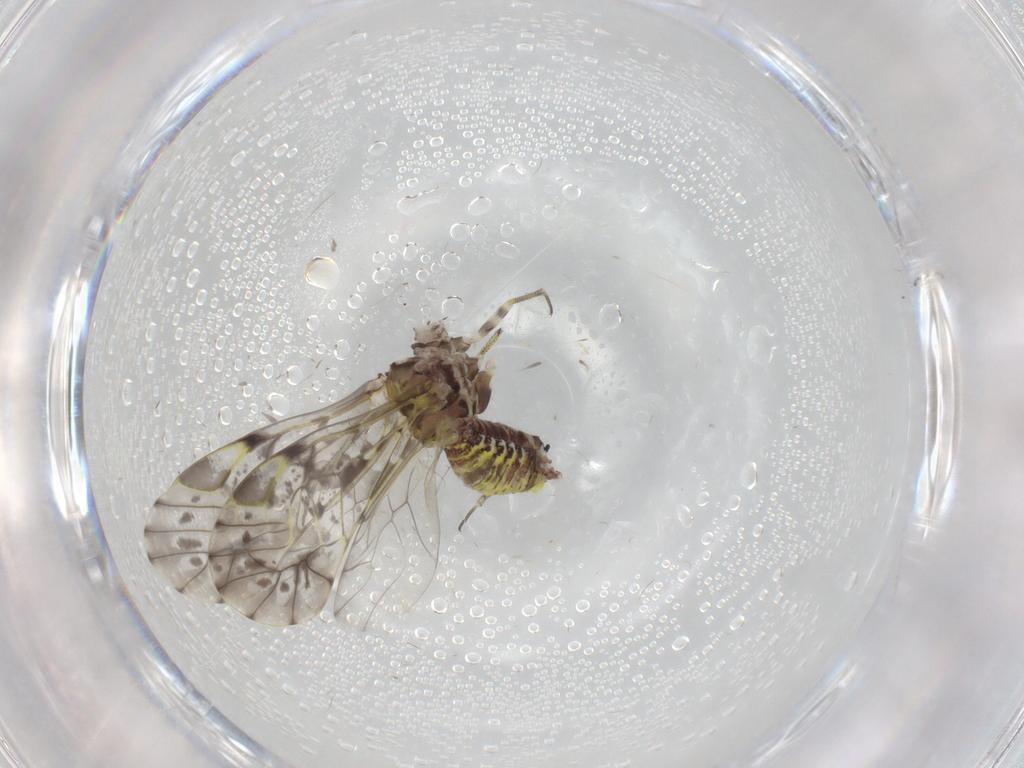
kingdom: Animalia
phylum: Arthropoda
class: Insecta
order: Psocodea
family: Psocidae
